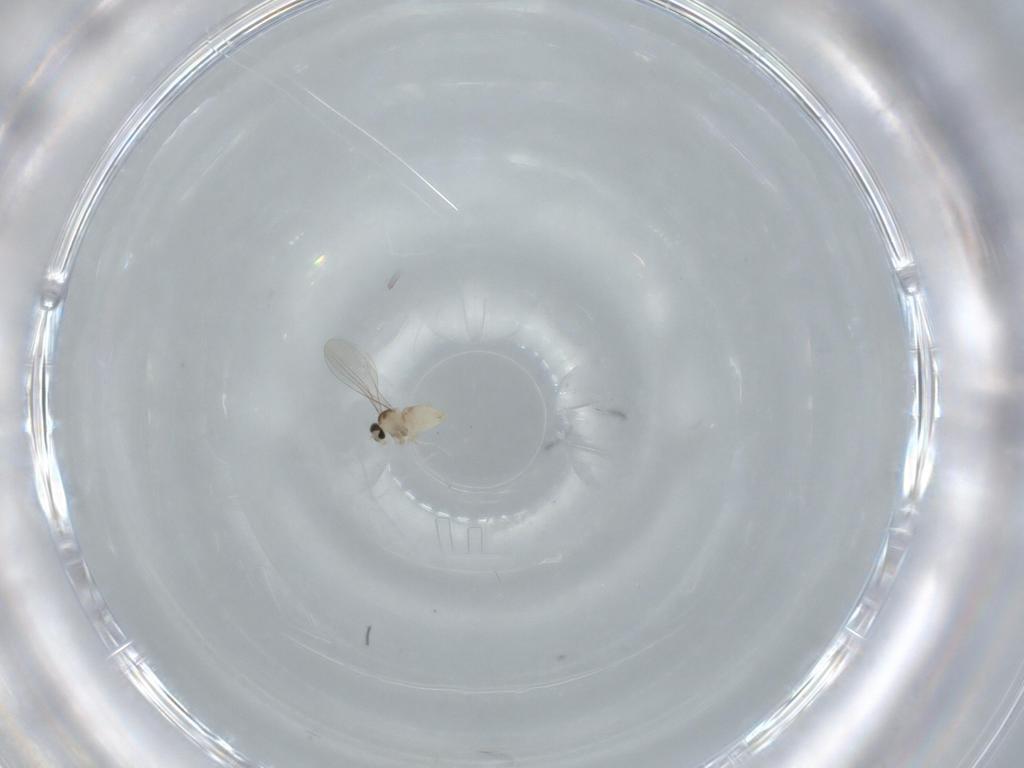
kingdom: Animalia
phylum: Arthropoda
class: Insecta
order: Diptera
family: Cecidomyiidae
